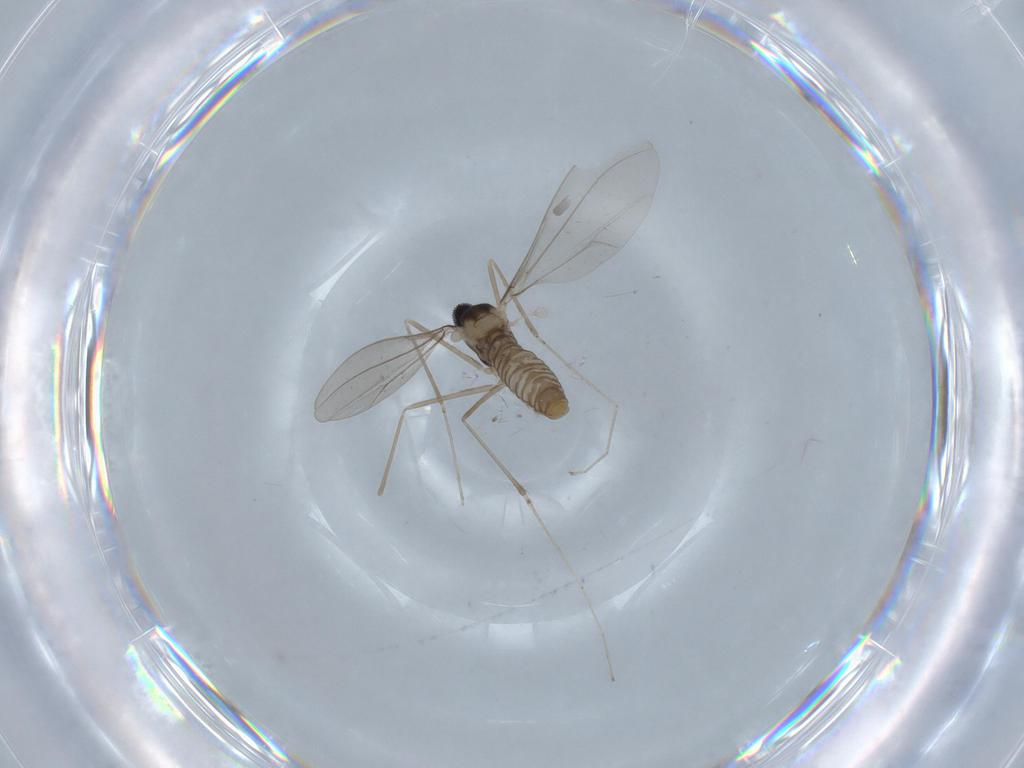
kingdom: Animalia
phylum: Arthropoda
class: Insecta
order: Diptera
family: Cecidomyiidae
